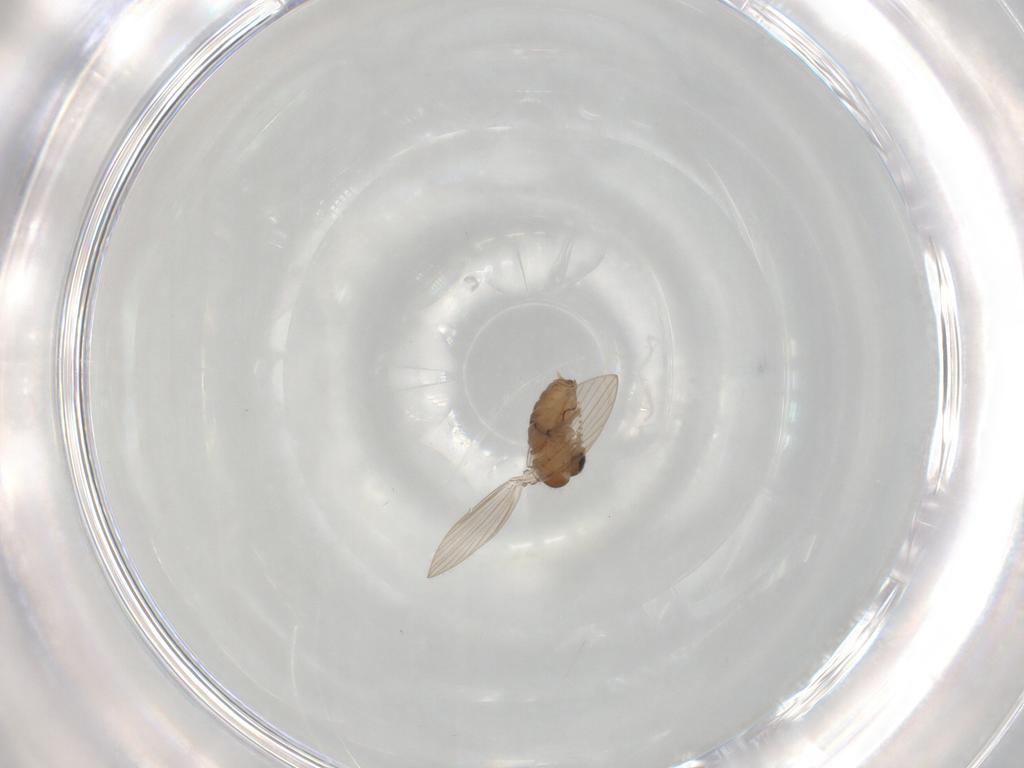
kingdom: Animalia
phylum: Arthropoda
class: Insecta
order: Diptera
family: Psychodidae
